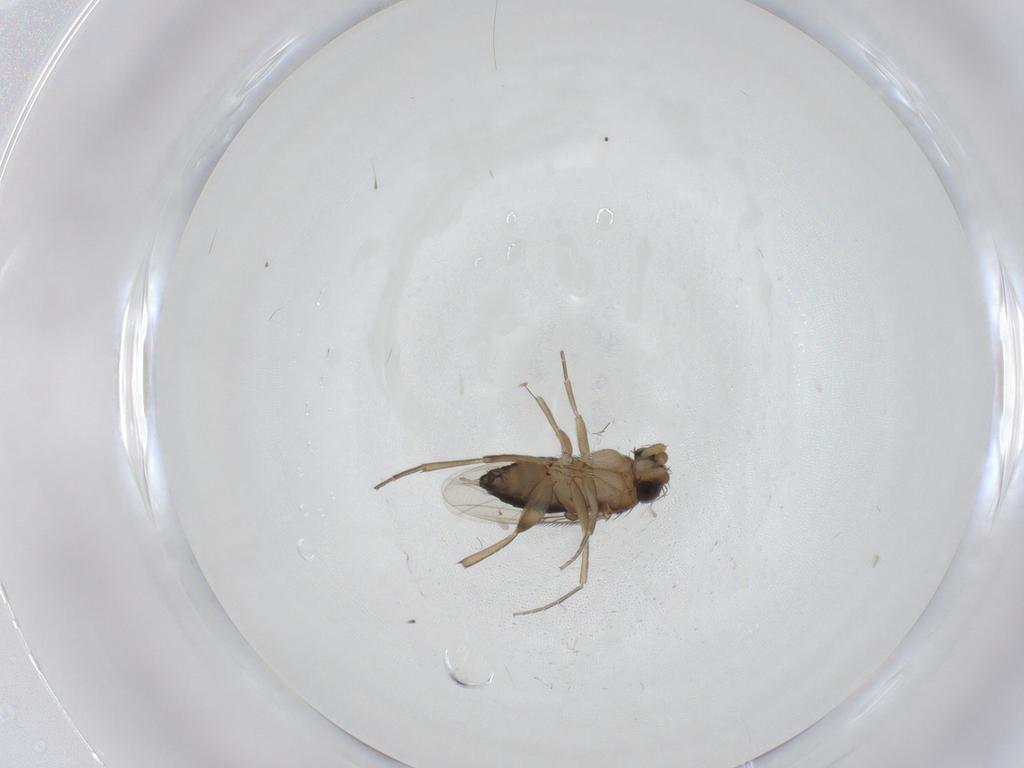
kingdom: Animalia
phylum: Arthropoda
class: Insecta
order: Diptera
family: Phoridae
